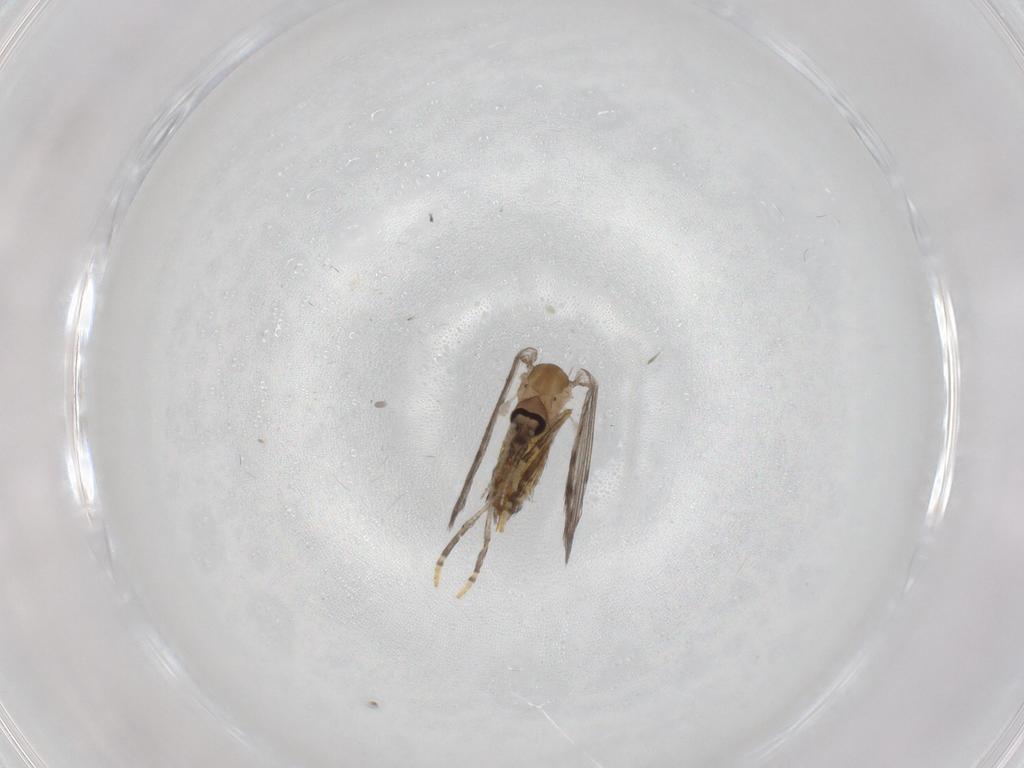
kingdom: Animalia
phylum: Arthropoda
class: Insecta
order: Diptera
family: Psychodidae
